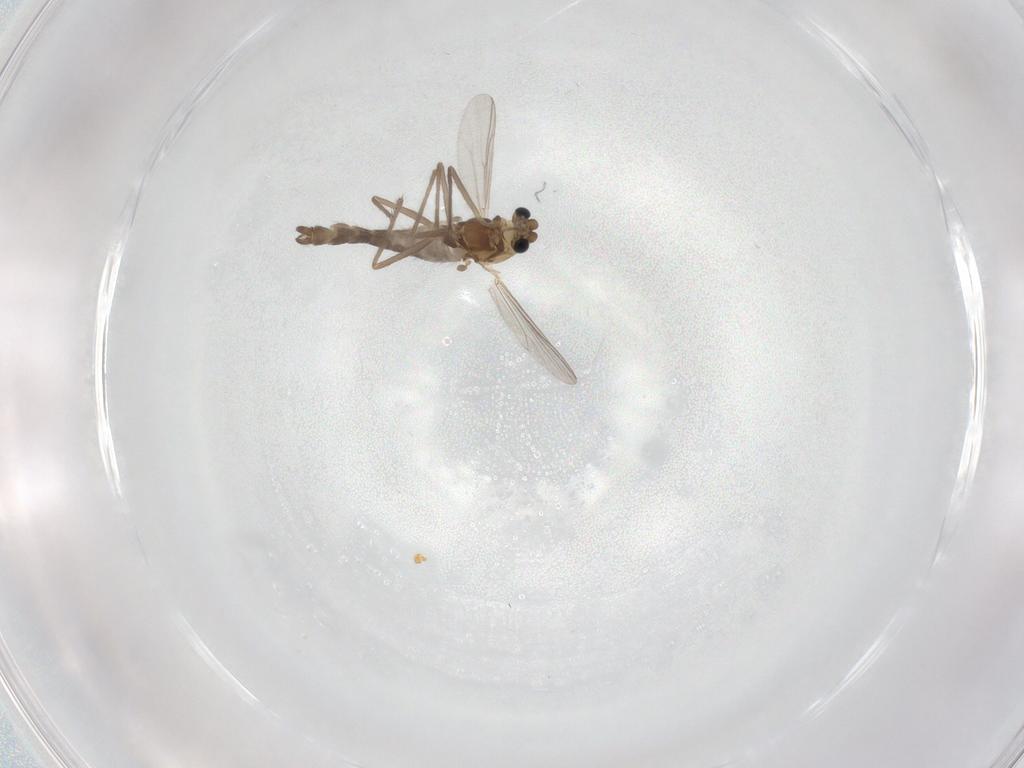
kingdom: Animalia
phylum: Arthropoda
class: Insecta
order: Diptera
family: Chironomidae
